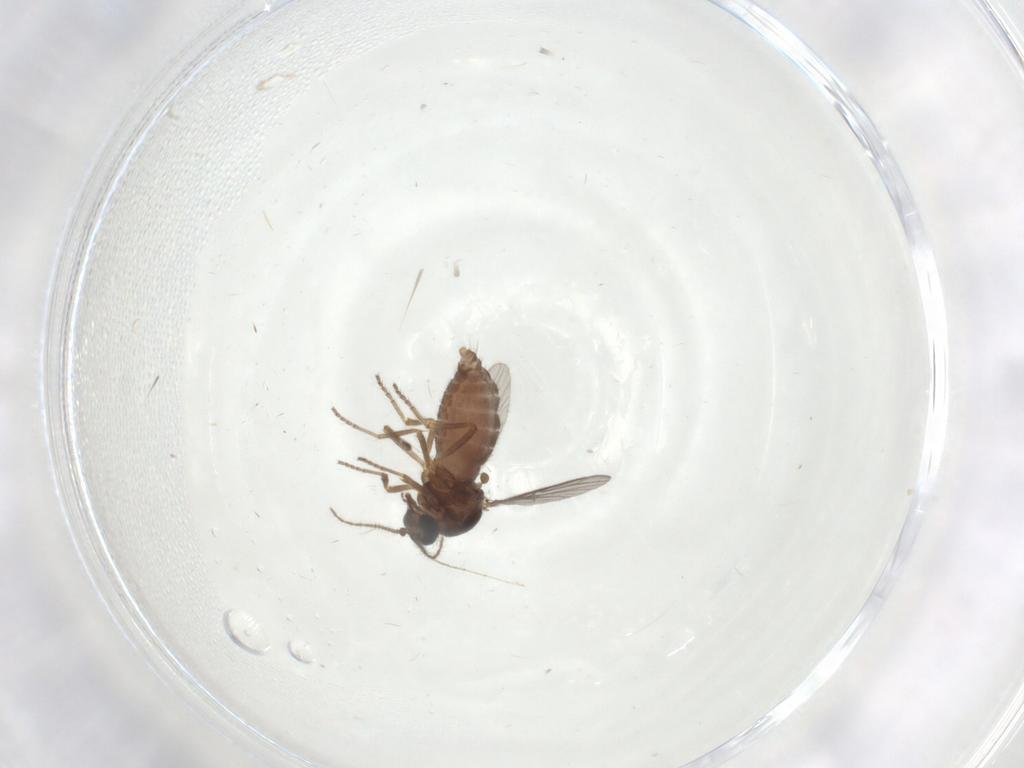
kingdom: Animalia
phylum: Arthropoda
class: Insecta
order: Diptera
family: Ceratopogonidae
